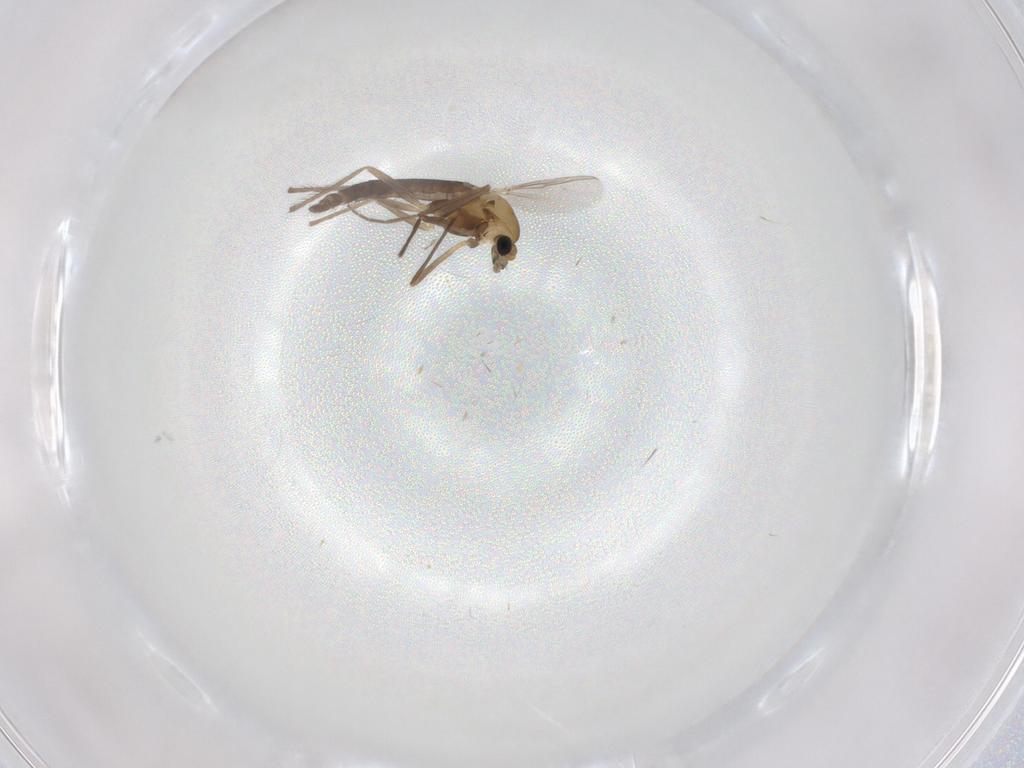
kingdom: Animalia
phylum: Arthropoda
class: Insecta
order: Diptera
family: Chironomidae
